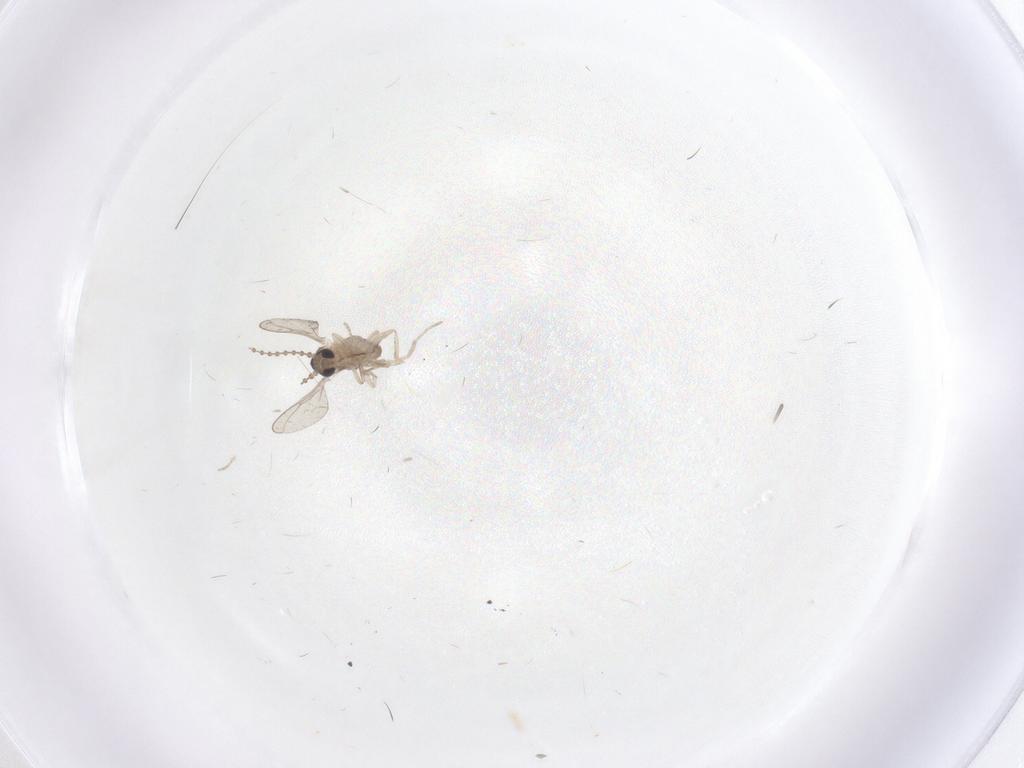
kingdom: Animalia
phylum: Arthropoda
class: Insecta
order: Diptera
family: Cecidomyiidae
